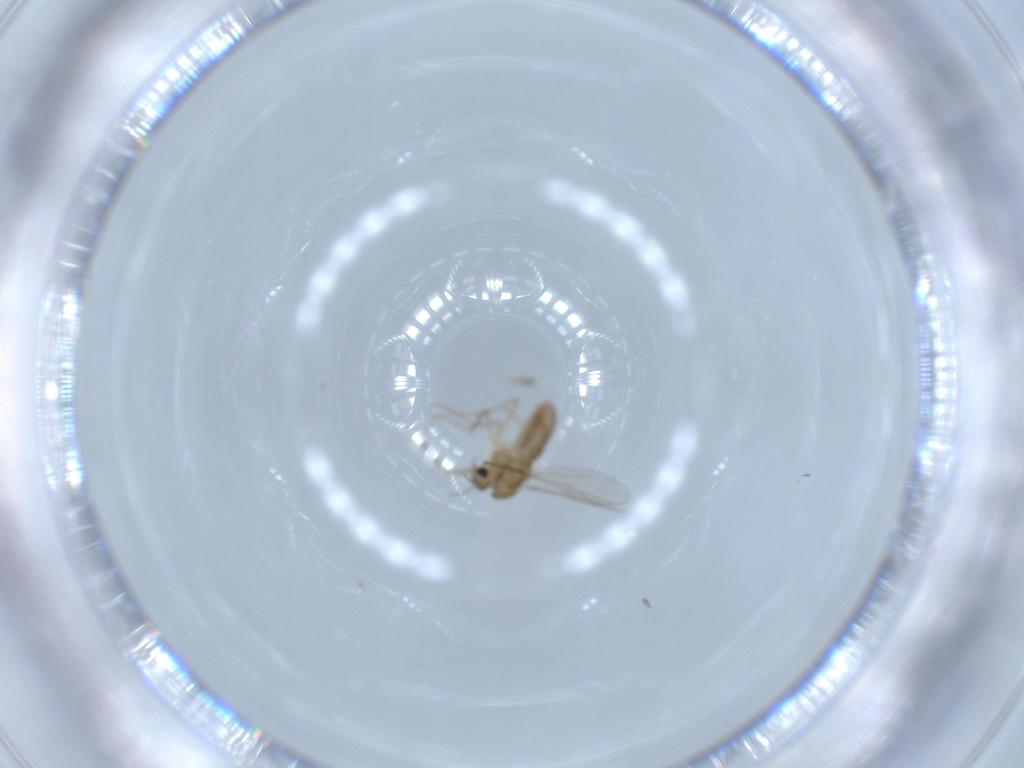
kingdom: Animalia
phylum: Arthropoda
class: Insecta
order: Diptera
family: Chironomidae
